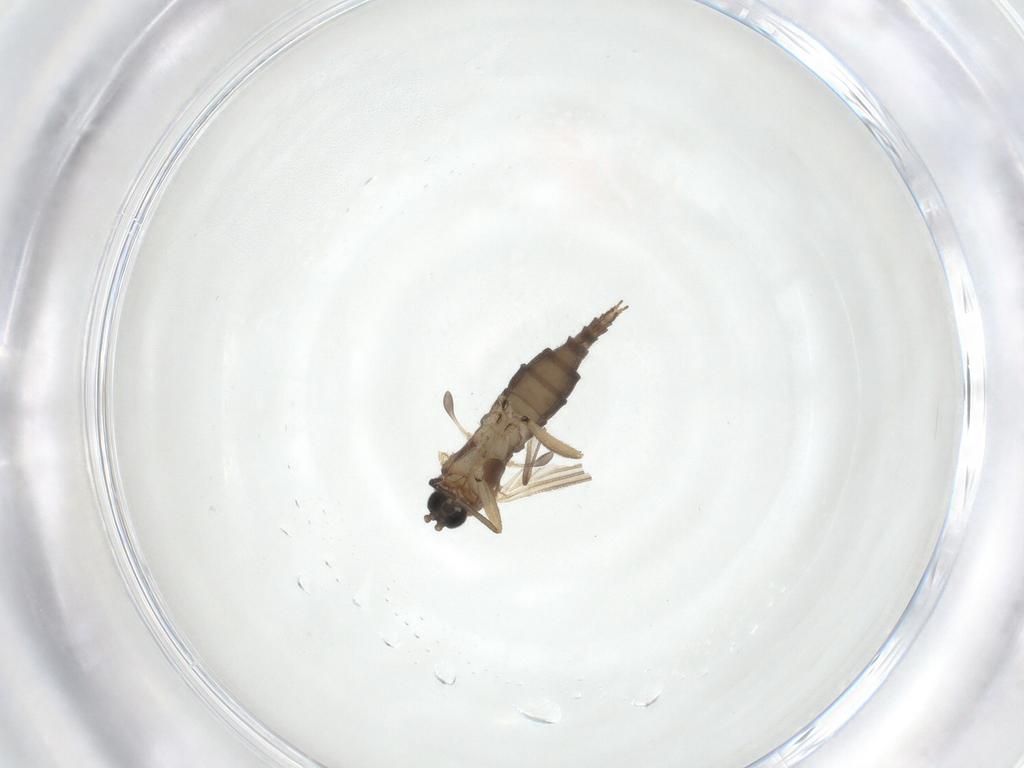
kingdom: Animalia
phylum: Arthropoda
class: Insecta
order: Diptera
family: Sciaridae
